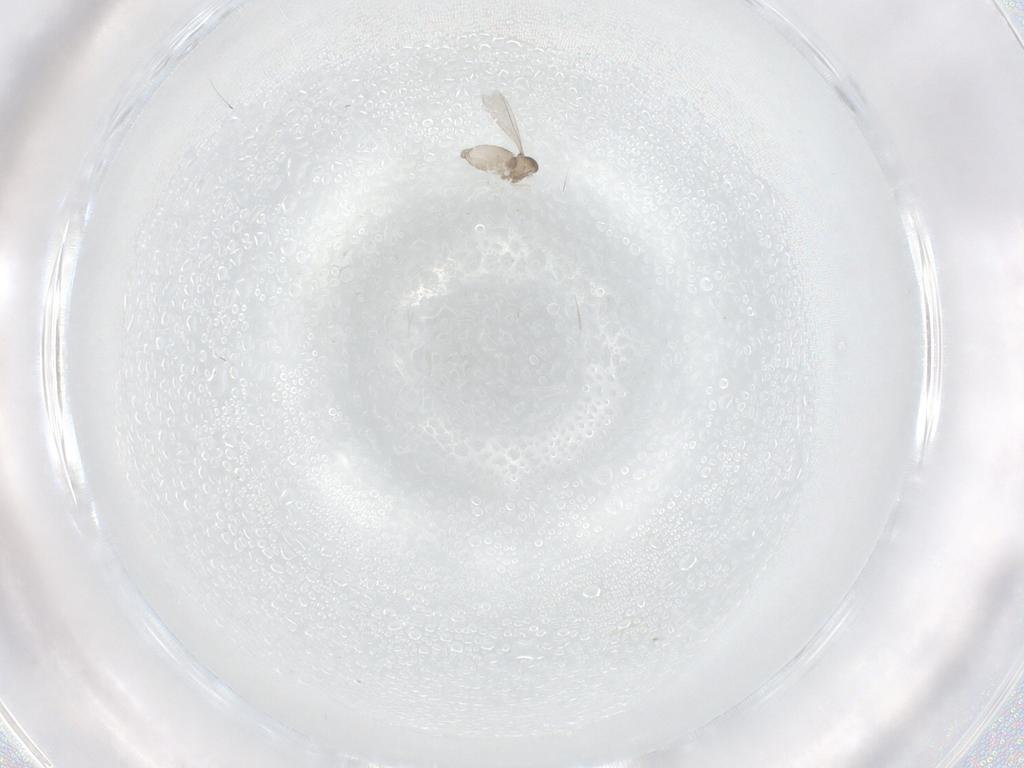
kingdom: Animalia
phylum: Arthropoda
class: Insecta
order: Diptera
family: Cecidomyiidae
